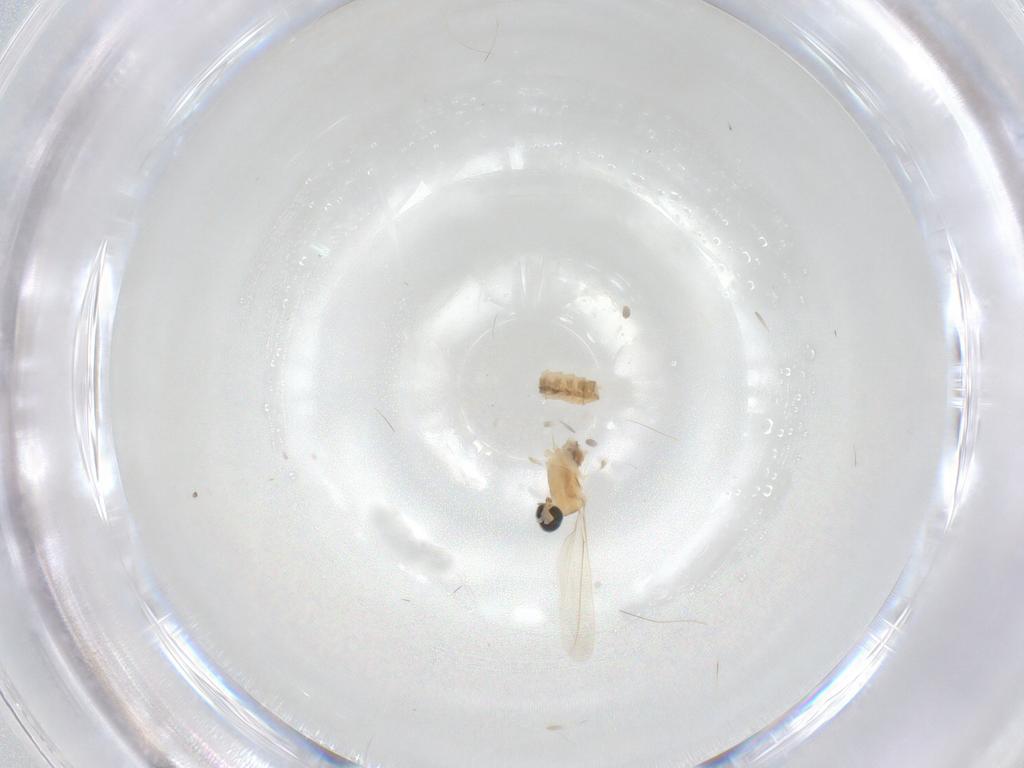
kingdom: Animalia
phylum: Arthropoda
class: Insecta
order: Diptera
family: Cecidomyiidae
